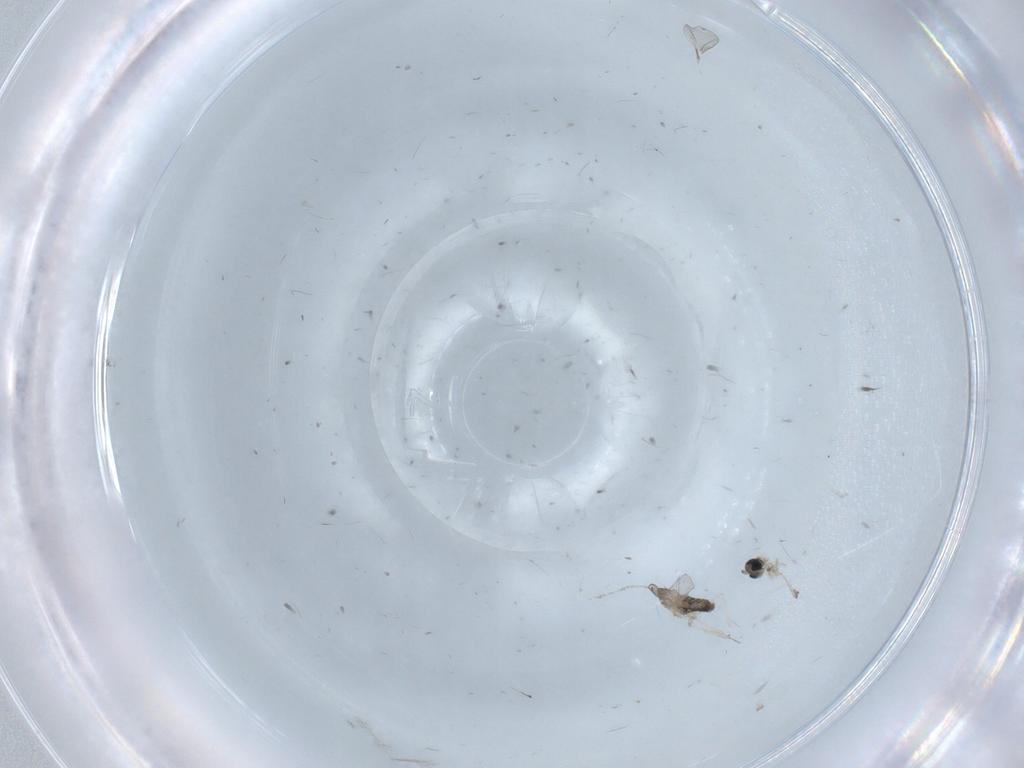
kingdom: Animalia
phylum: Arthropoda
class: Insecta
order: Diptera
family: Cecidomyiidae
